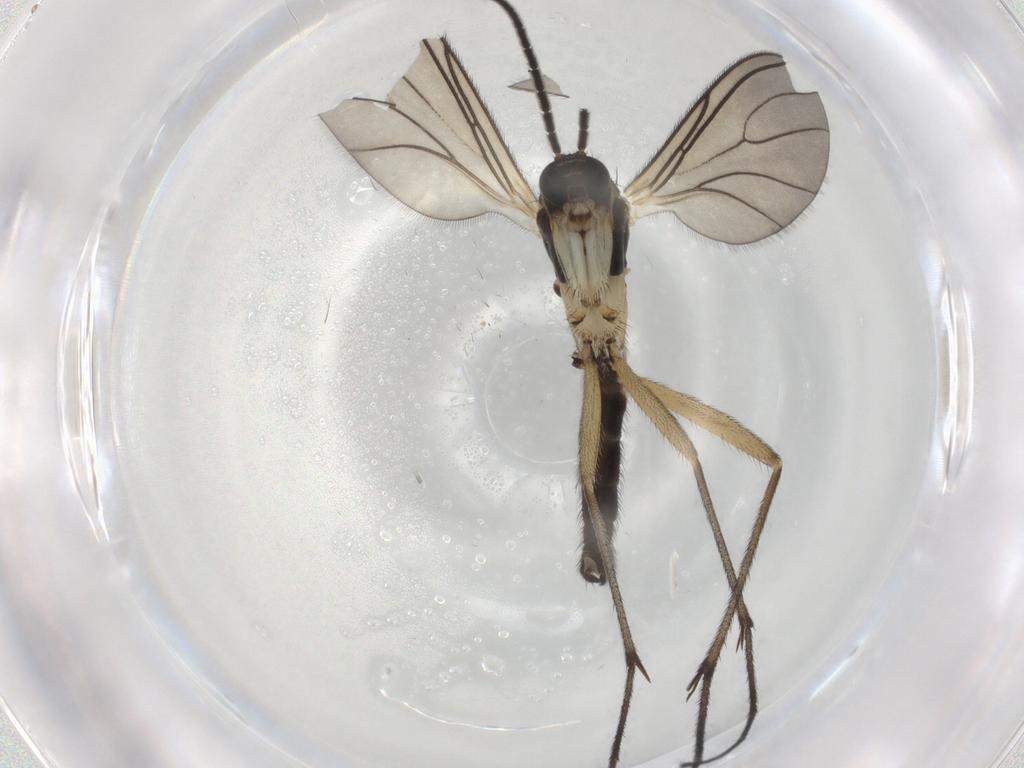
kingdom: Animalia
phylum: Arthropoda
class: Insecta
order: Diptera
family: Sciaridae
